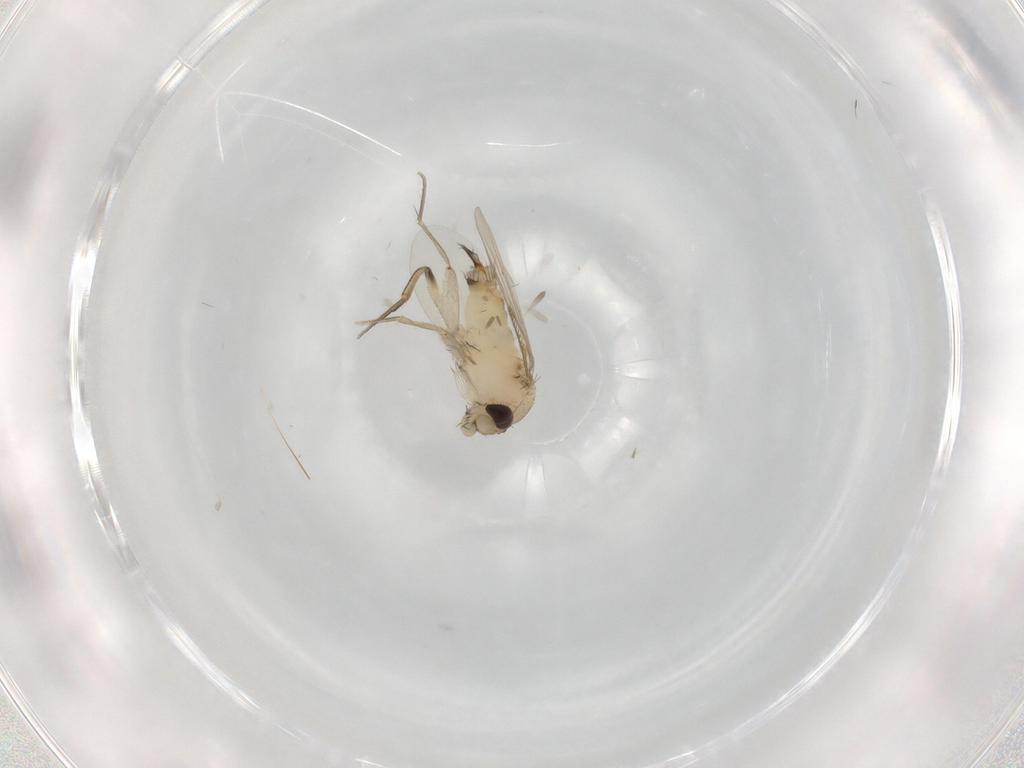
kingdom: Animalia
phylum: Arthropoda
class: Insecta
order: Diptera
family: Phoridae
